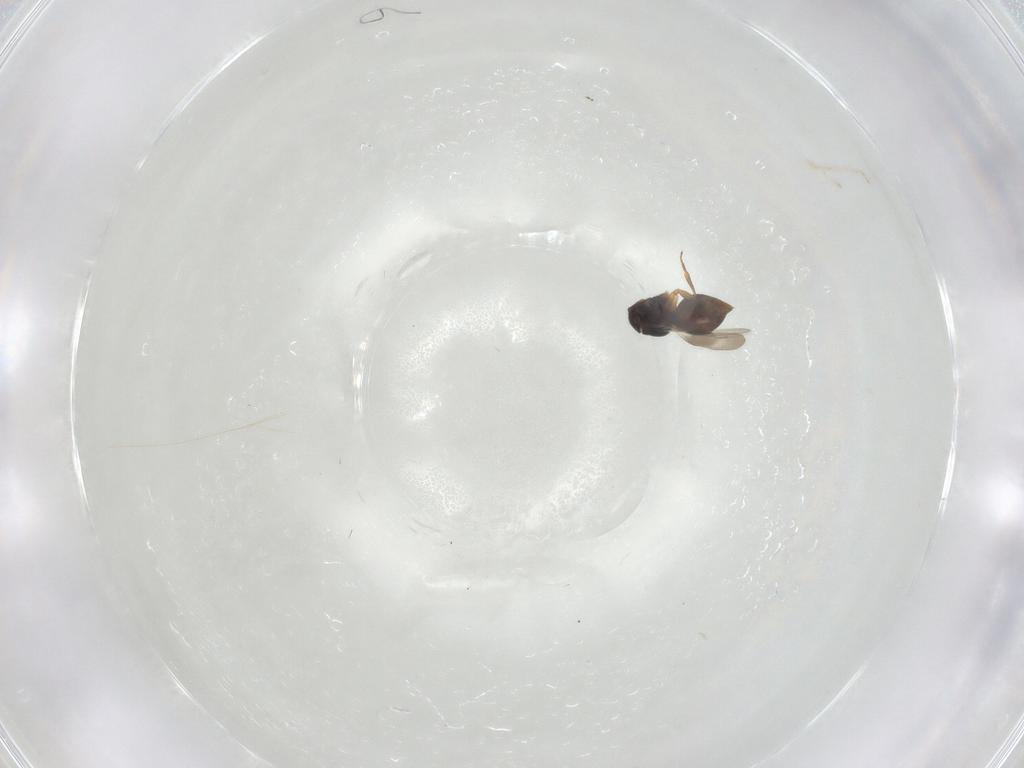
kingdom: Animalia
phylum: Arthropoda
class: Insecta
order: Hymenoptera
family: Ceraphronidae
